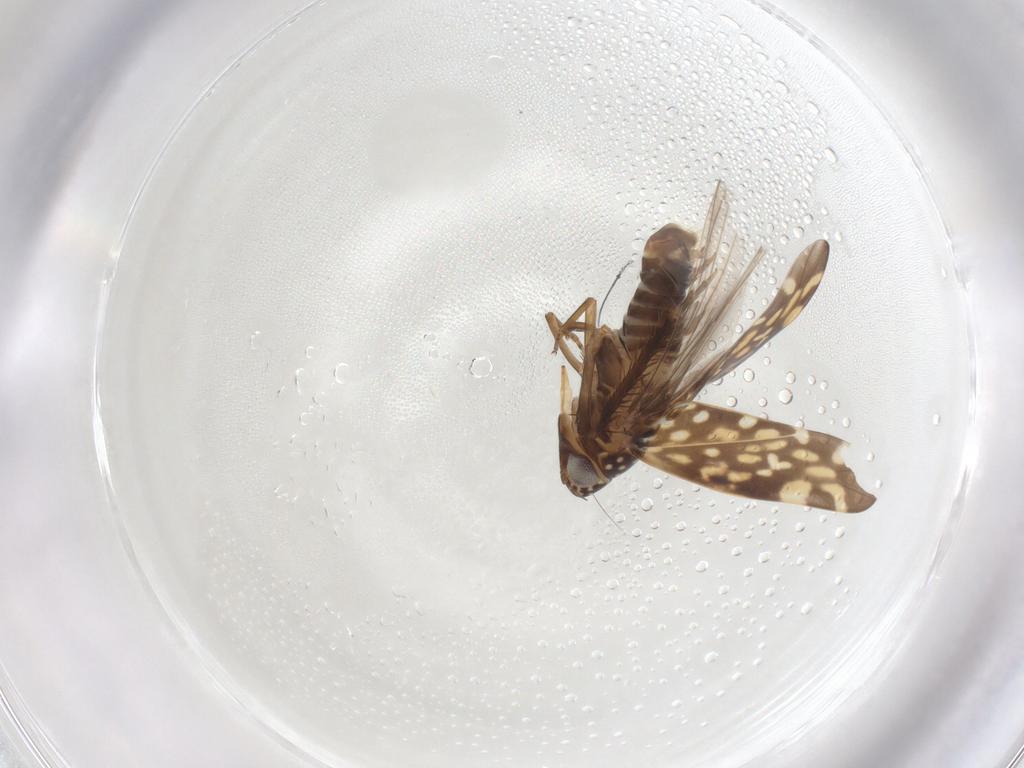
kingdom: Animalia
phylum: Arthropoda
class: Insecta
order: Hemiptera
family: Cicadellidae
